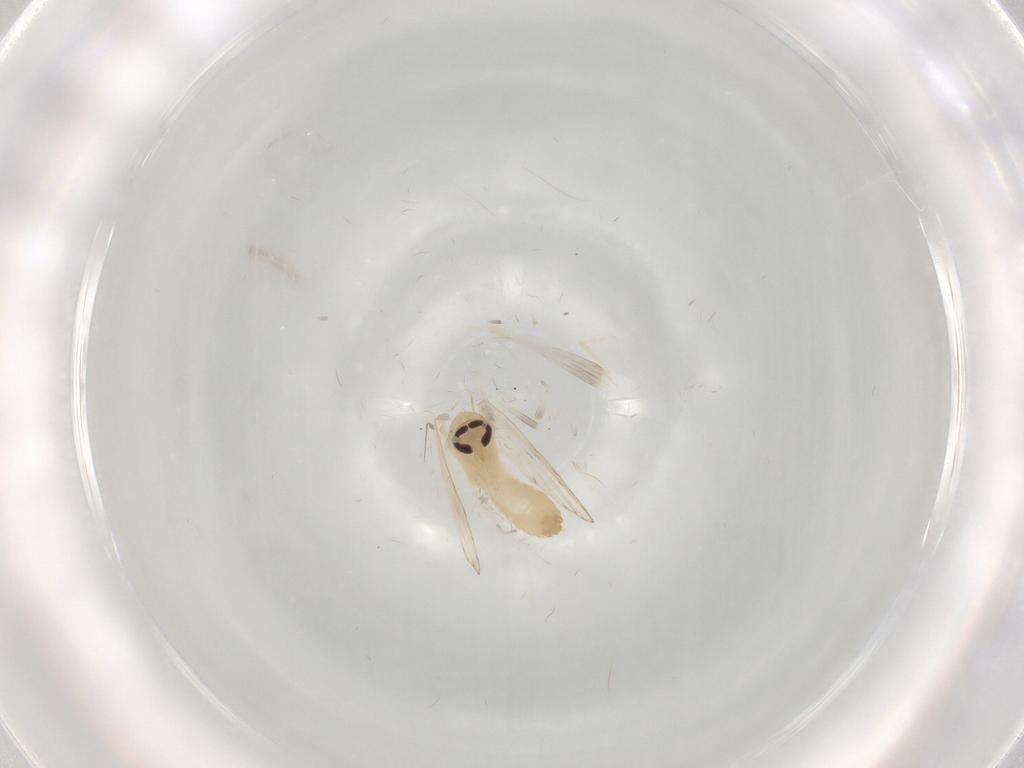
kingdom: Animalia
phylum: Arthropoda
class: Insecta
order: Diptera
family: Psychodidae
